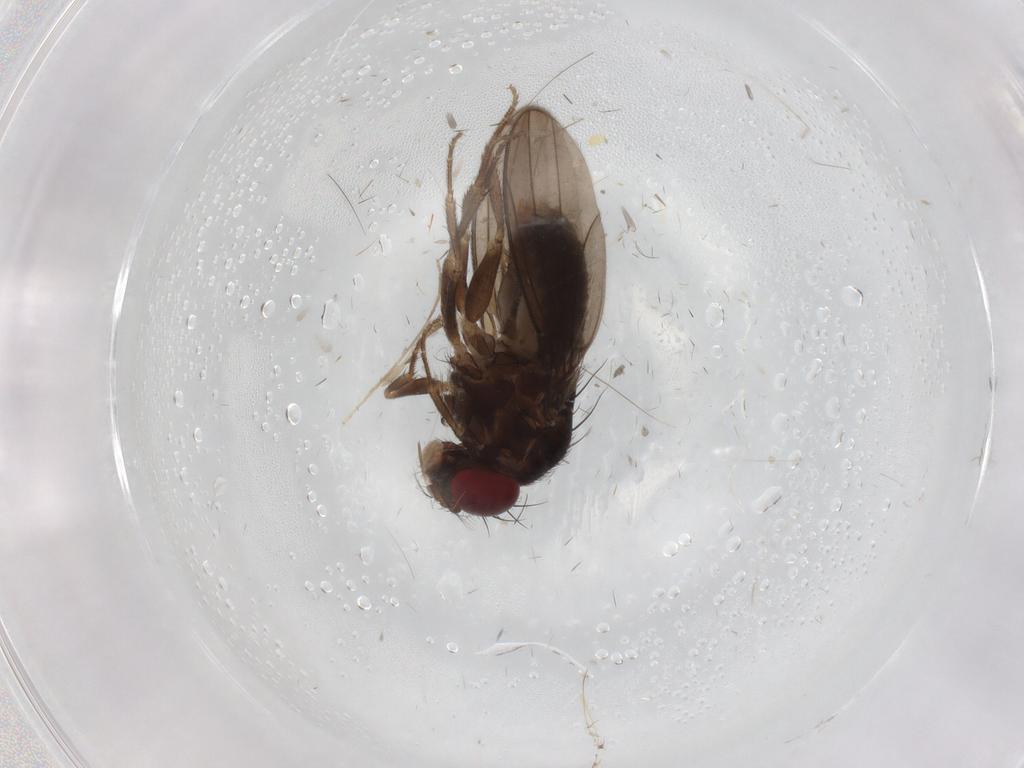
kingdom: Animalia
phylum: Arthropoda
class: Insecta
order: Diptera
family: Drosophilidae
